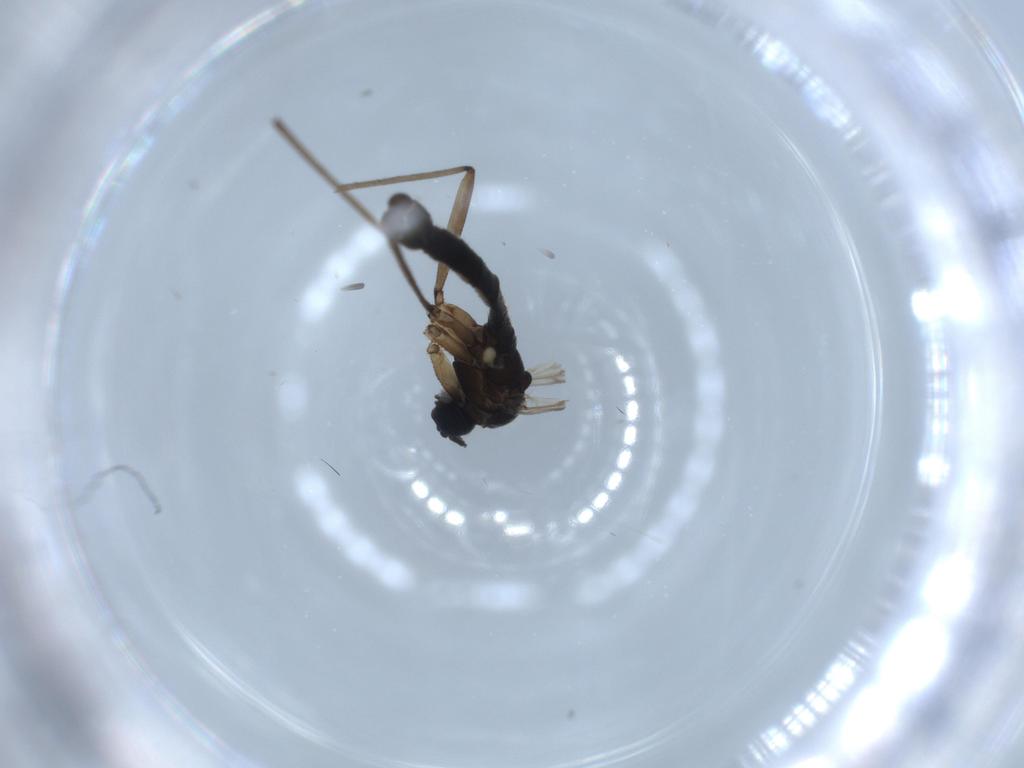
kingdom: Animalia
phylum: Arthropoda
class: Insecta
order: Diptera
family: Sciaridae
